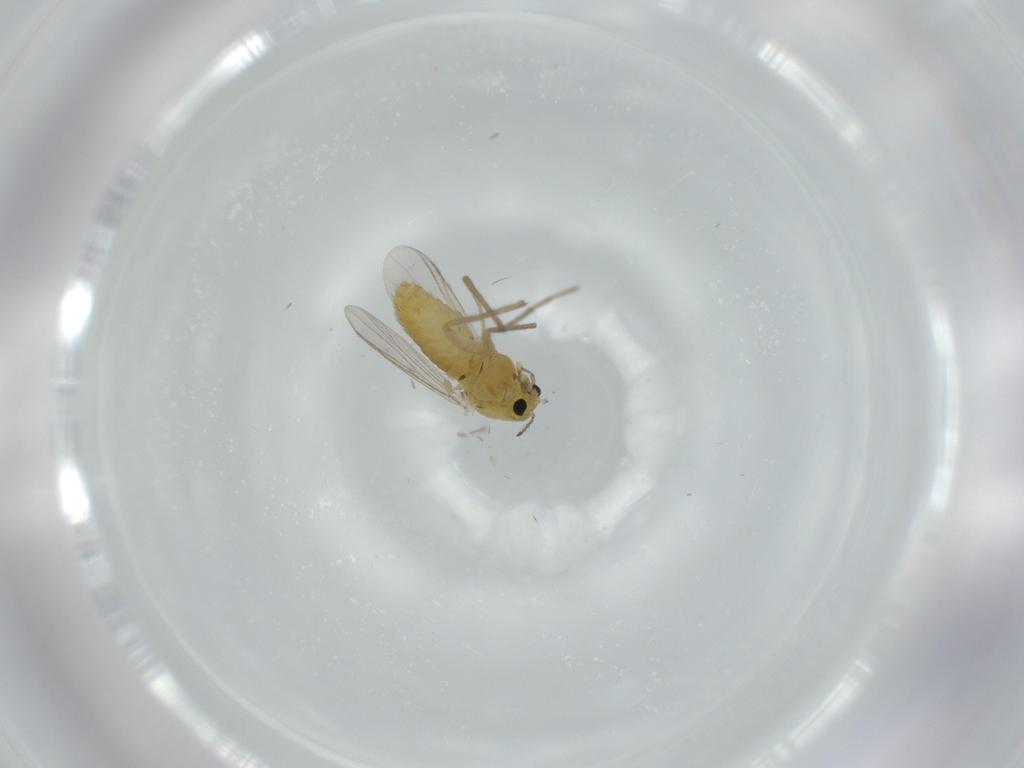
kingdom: Animalia
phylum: Arthropoda
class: Insecta
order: Diptera
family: Chironomidae
